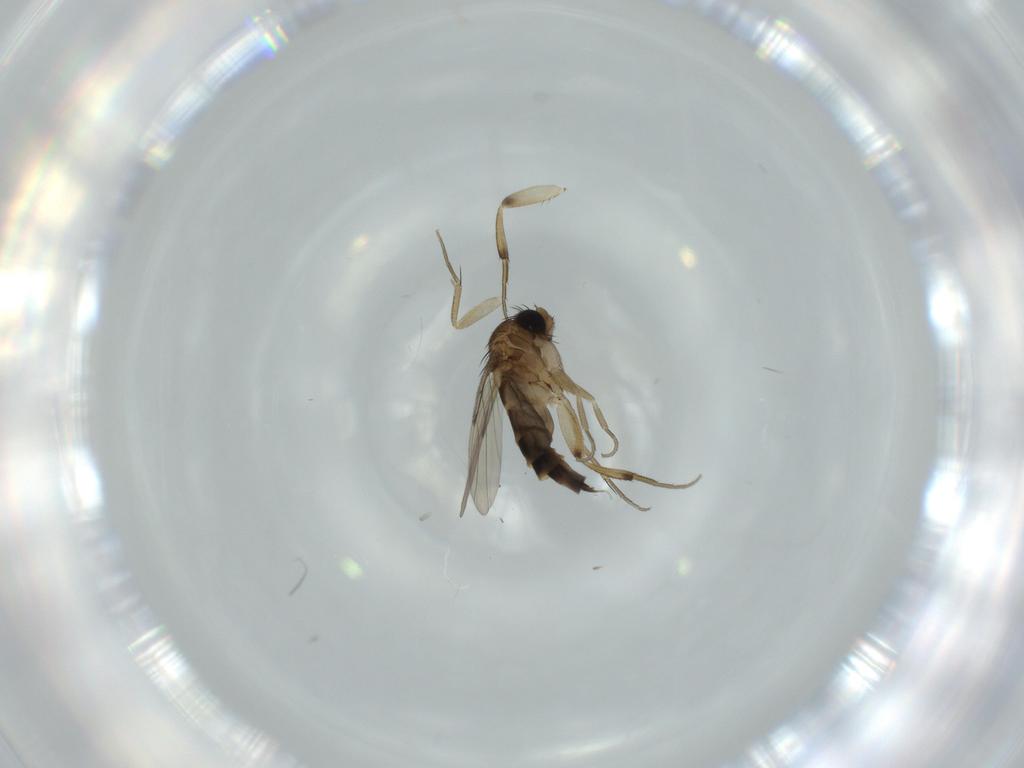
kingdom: Animalia
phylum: Arthropoda
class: Insecta
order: Diptera
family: Phoridae
